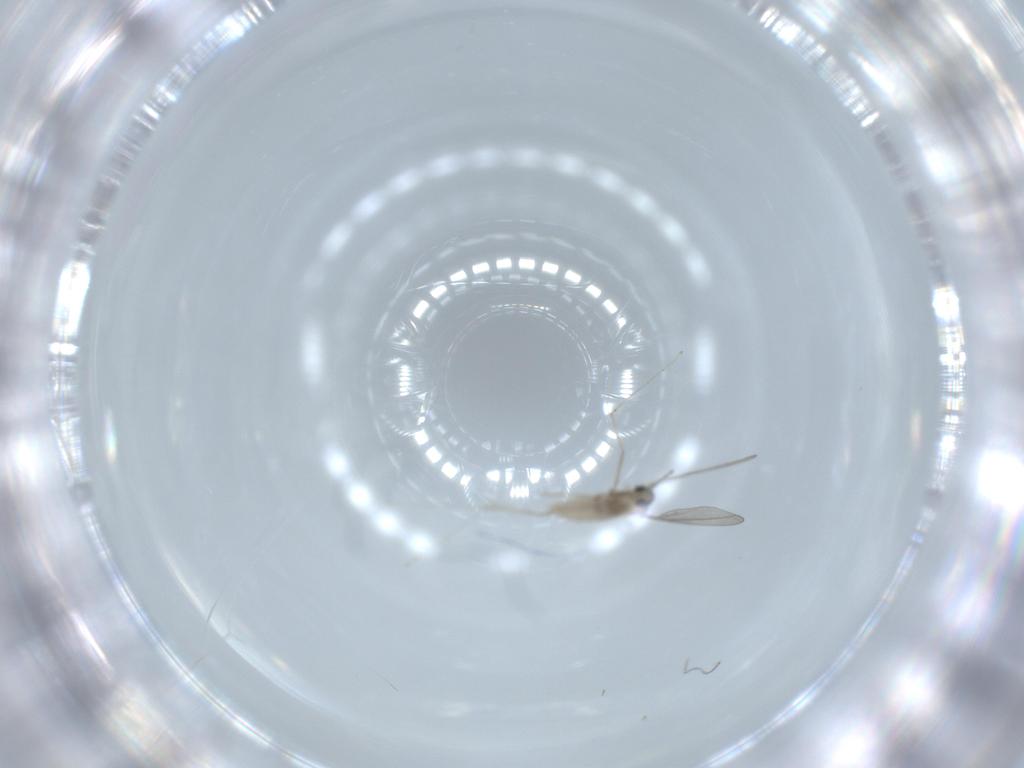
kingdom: Animalia
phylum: Arthropoda
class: Insecta
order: Diptera
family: Cecidomyiidae
